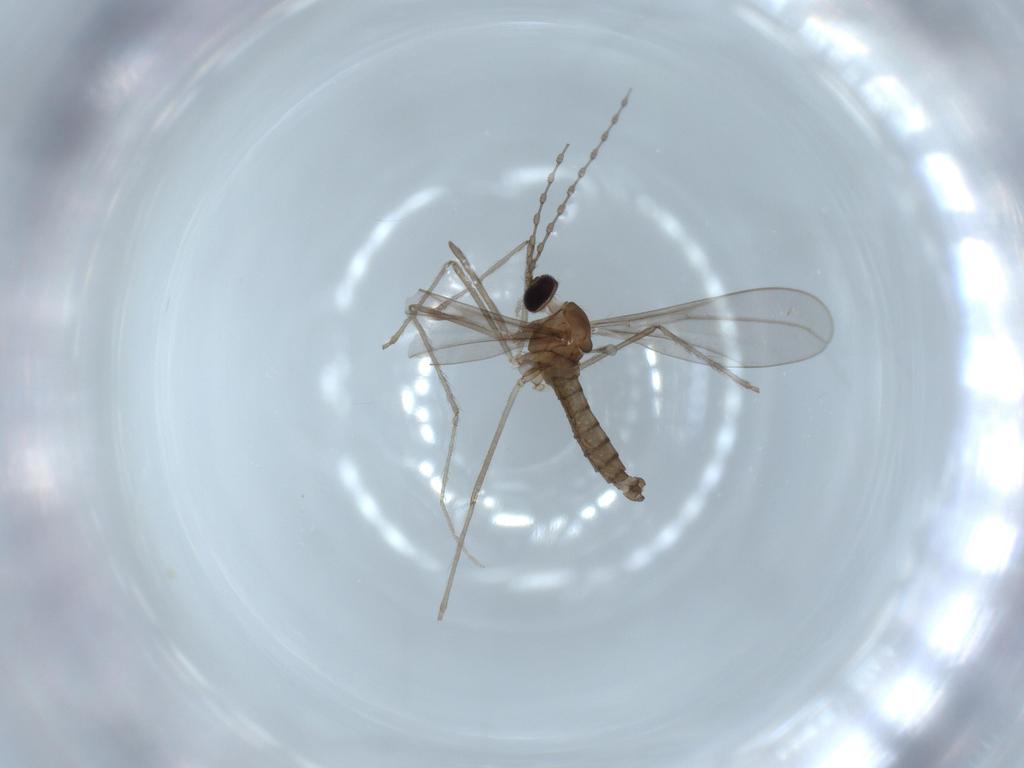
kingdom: Animalia
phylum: Arthropoda
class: Insecta
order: Diptera
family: Cecidomyiidae
